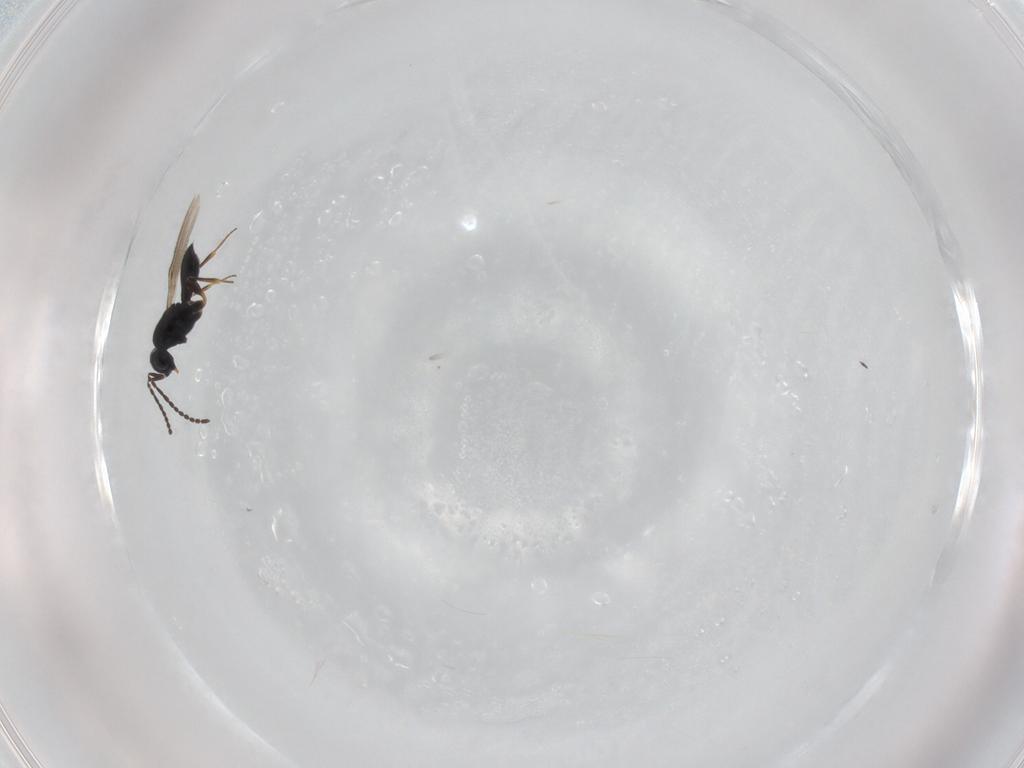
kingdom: Animalia
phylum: Arthropoda
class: Insecta
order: Hymenoptera
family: Scelionidae
